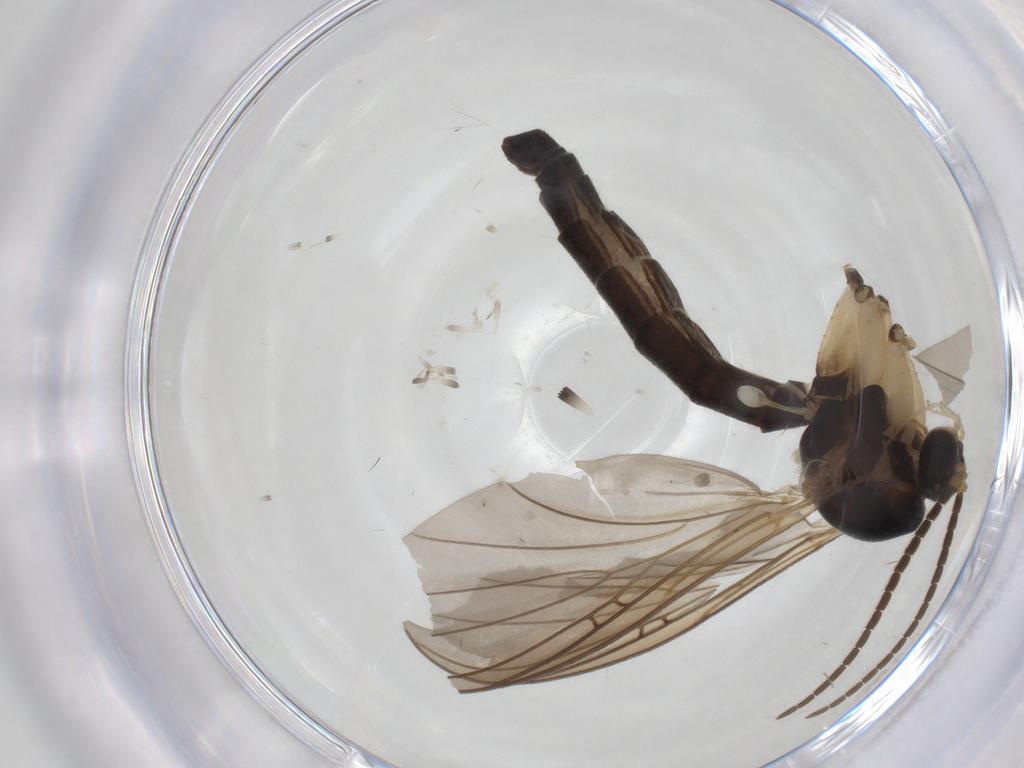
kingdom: Animalia
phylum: Arthropoda
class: Insecta
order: Diptera
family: Mycetophilidae
